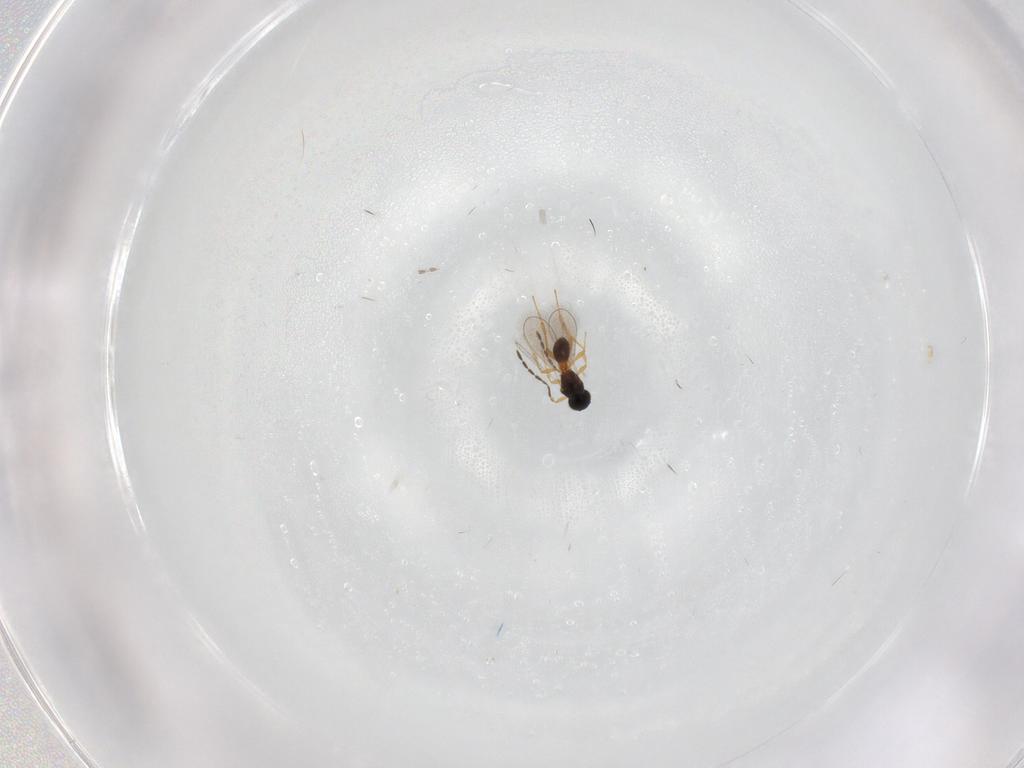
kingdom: Animalia
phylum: Arthropoda
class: Insecta
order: Hymenoptera
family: Platygastridae
